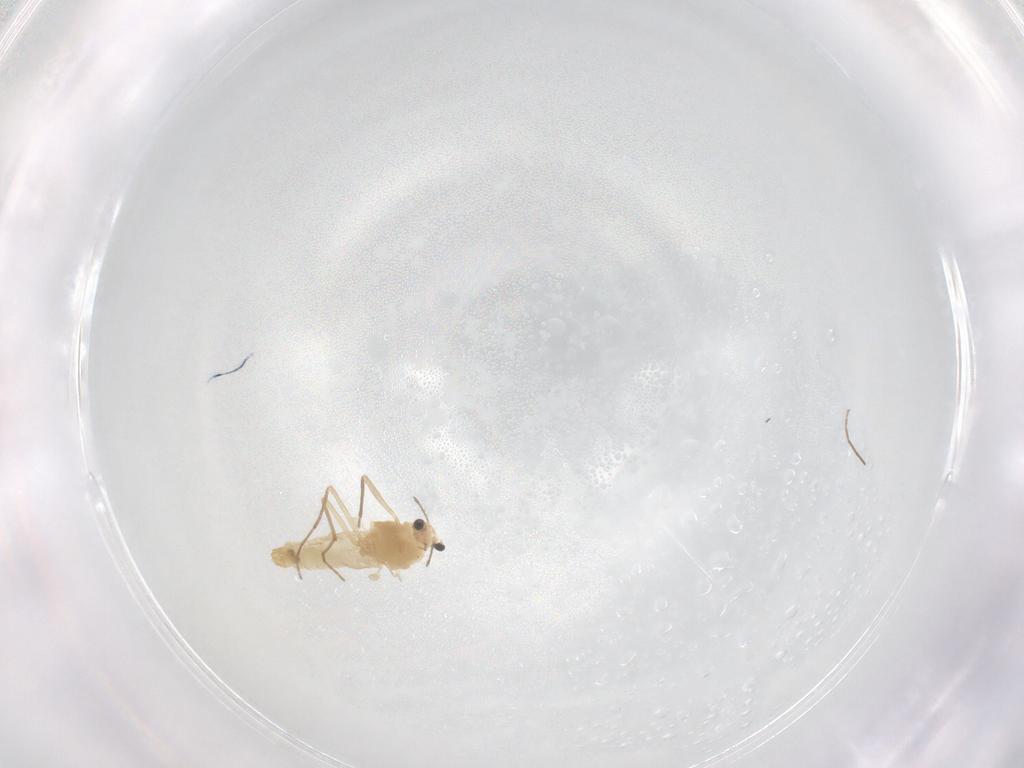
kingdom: Animalia
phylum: Arthropoda
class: Insecta
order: Diptera
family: Chironomidae
